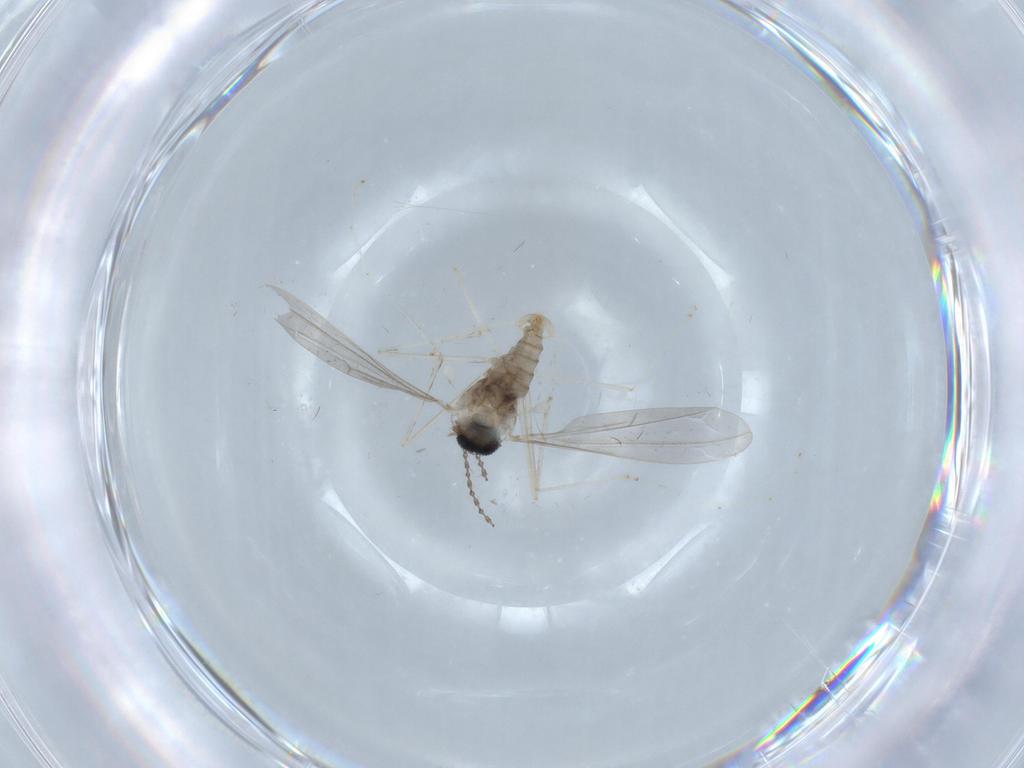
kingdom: Animalia
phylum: Arthropoda
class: Insecta
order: Diptera
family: Cecidomyiidae
